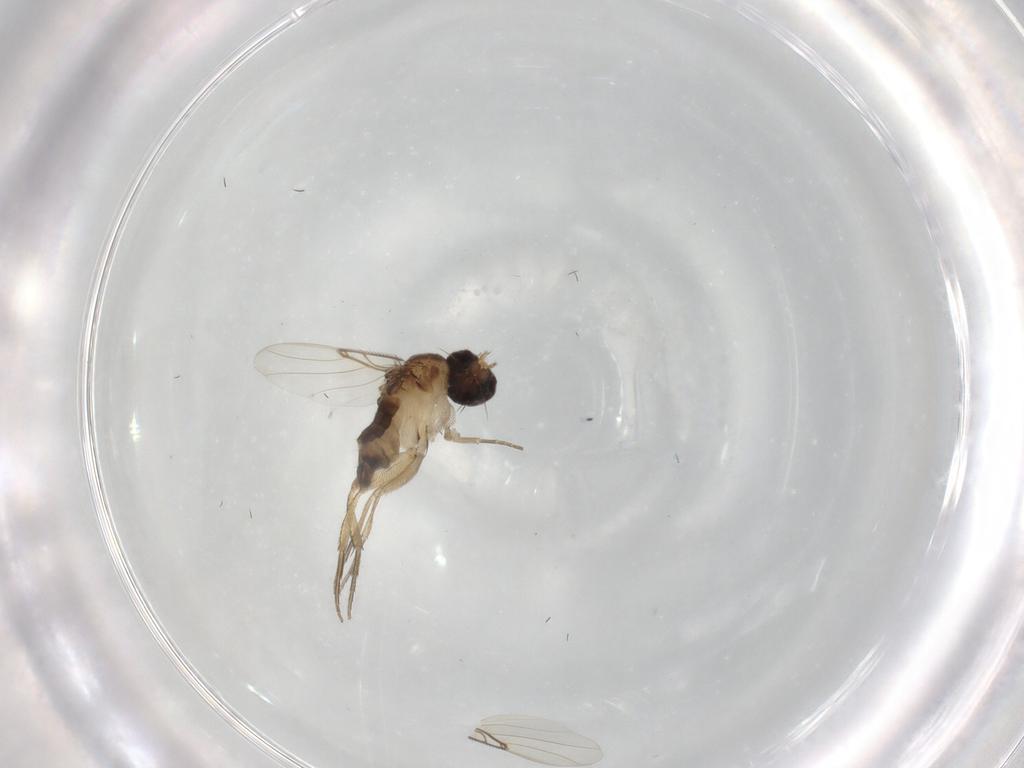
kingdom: Animalia
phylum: Arthropoda
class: Insecta
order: Diptera
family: Phoridae
